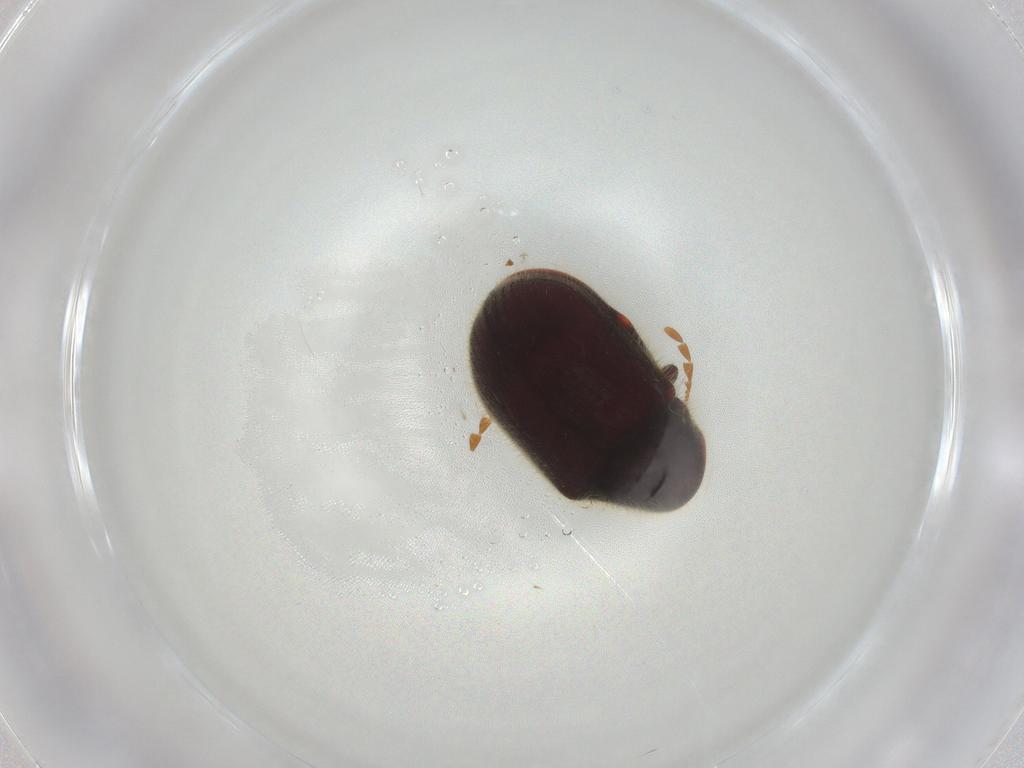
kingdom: Animalia
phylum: Arthropoda
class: Insecta
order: Coleoptera
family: Ptinidae
